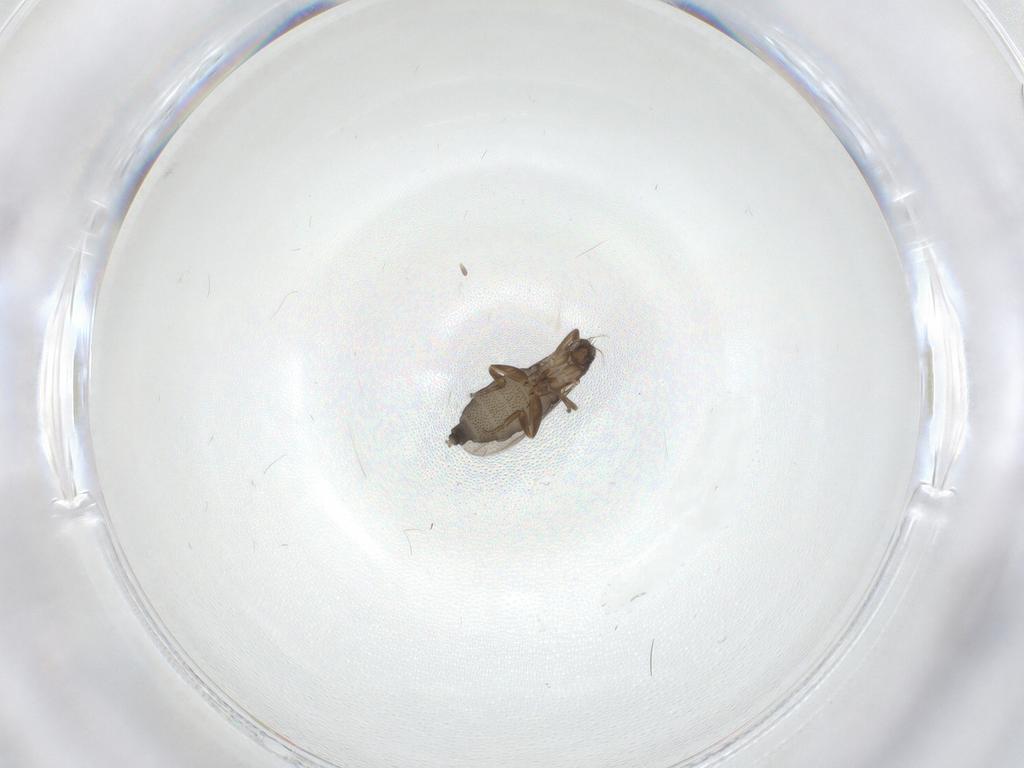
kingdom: Animalia
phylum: Arthropoda
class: Insecta
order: Diptera
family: Phoridae
